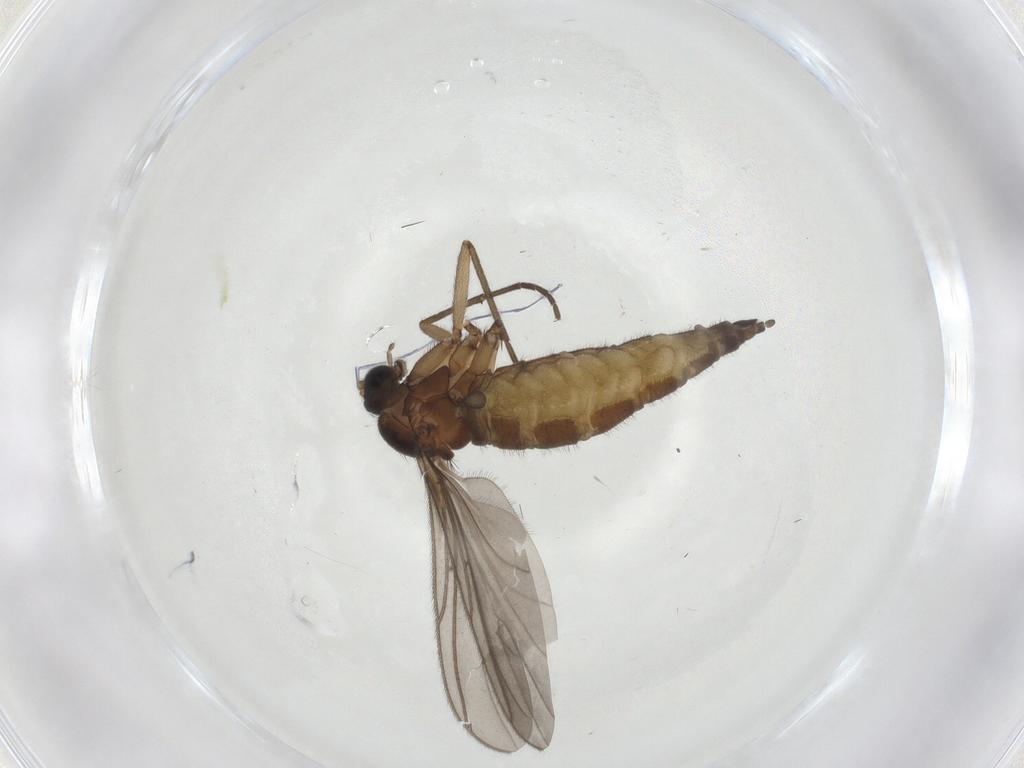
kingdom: Animalia
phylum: Arthropoda
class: Insecta
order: Diptera
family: Sciaridae
